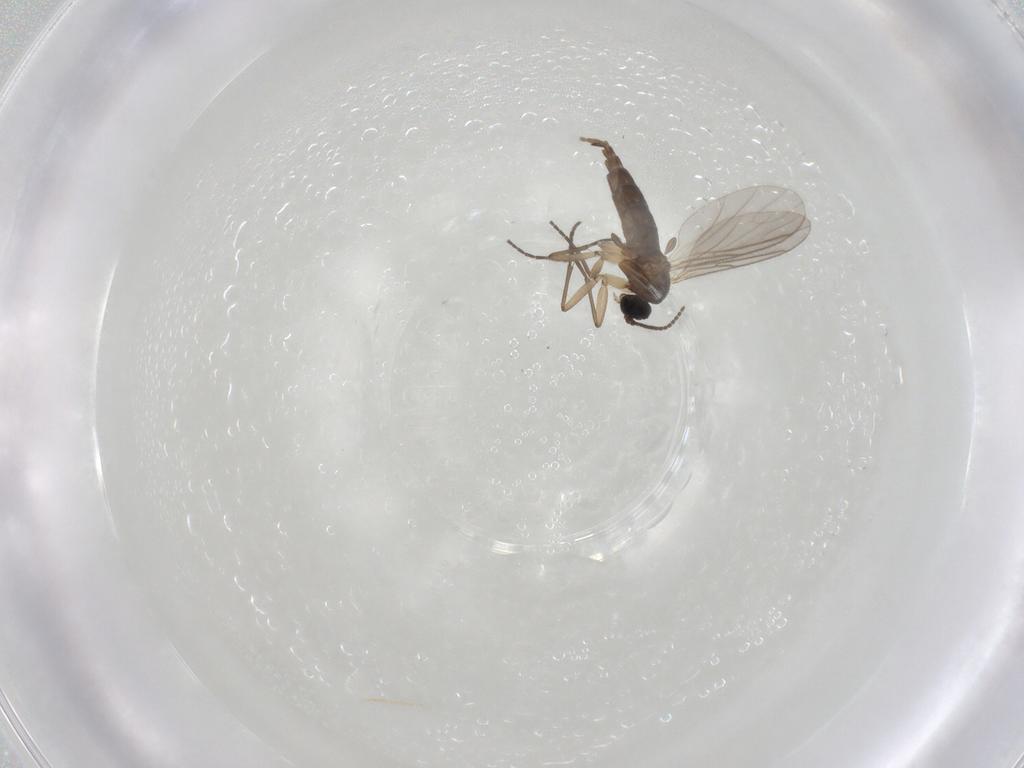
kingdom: Animalia
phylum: Arthropoda
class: Insecta
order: Diptera
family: Sciaridae
